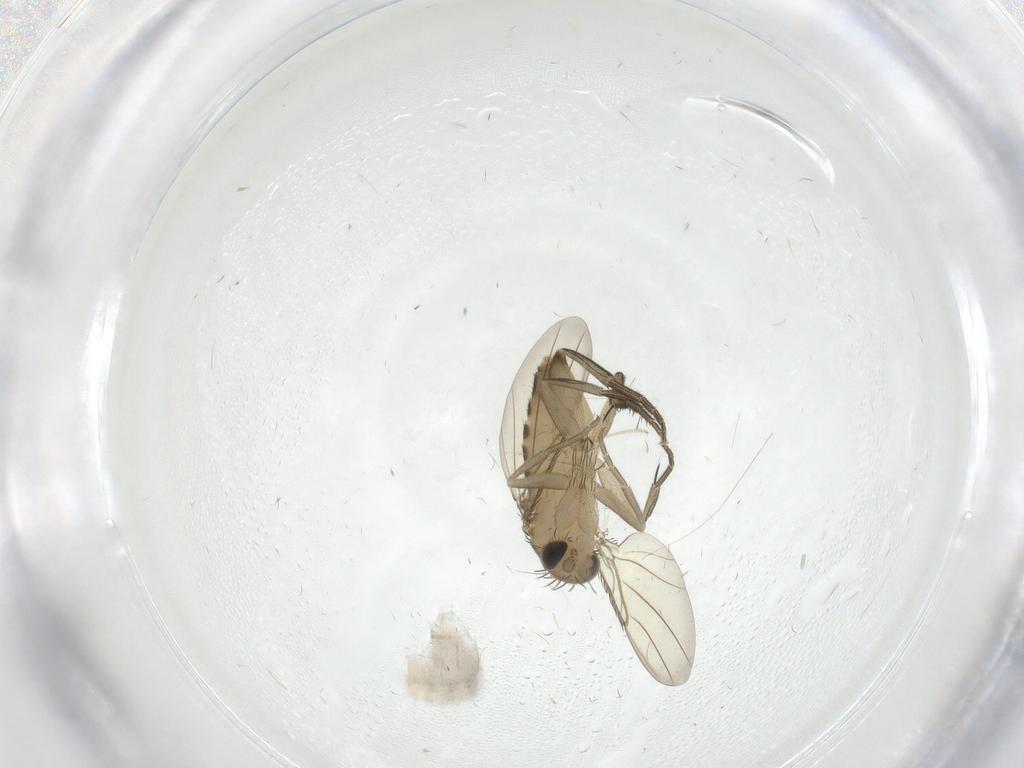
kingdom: Animalia
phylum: Arthropoda
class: Insecta
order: Diptera
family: Phoridae
